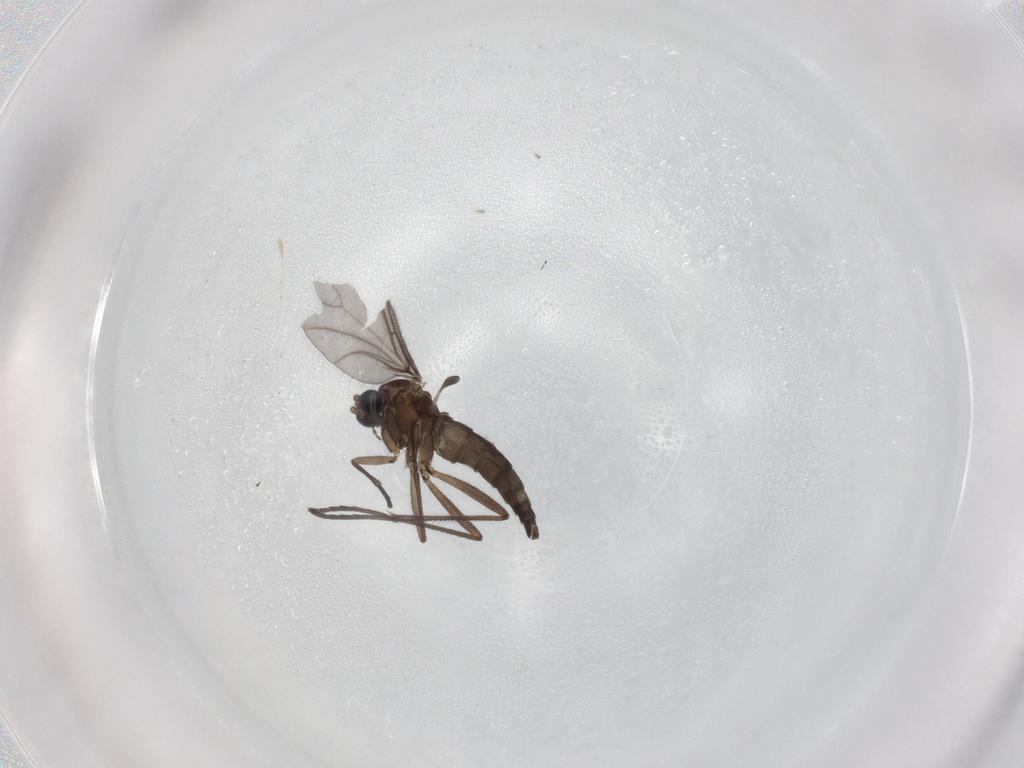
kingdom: Animalia
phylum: Arthropoda
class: Insecta
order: Diptera
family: Sciaridae
